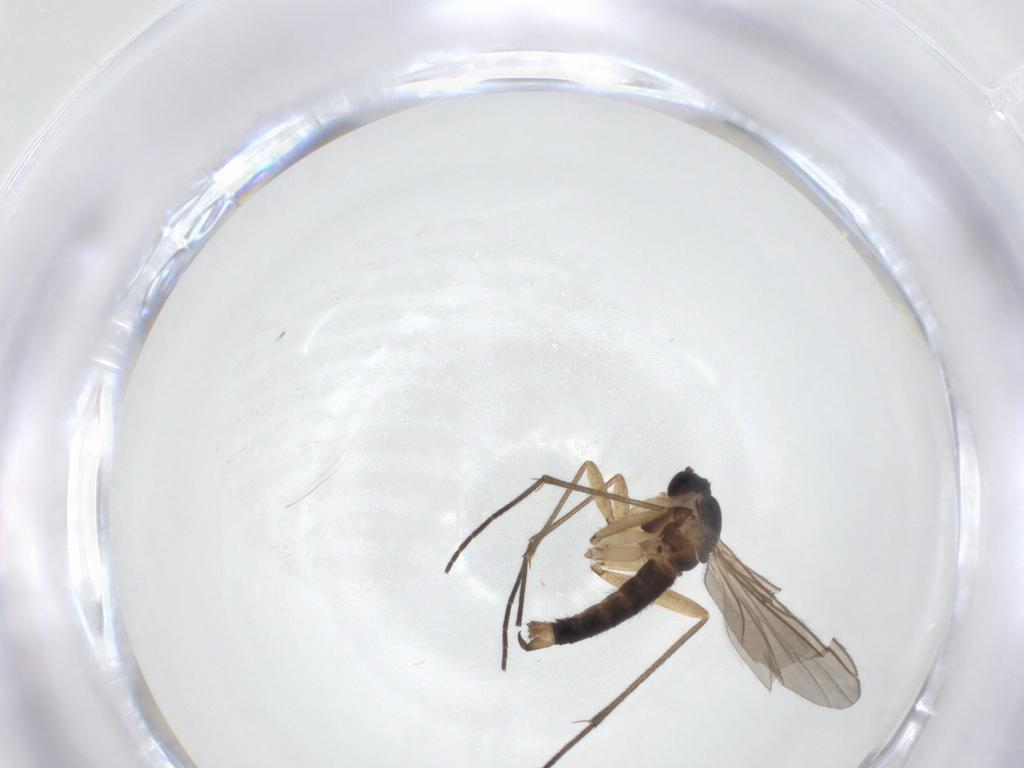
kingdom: Animalia
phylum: Arthropoda
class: Insecta
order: Diptera
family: Sciaridae
